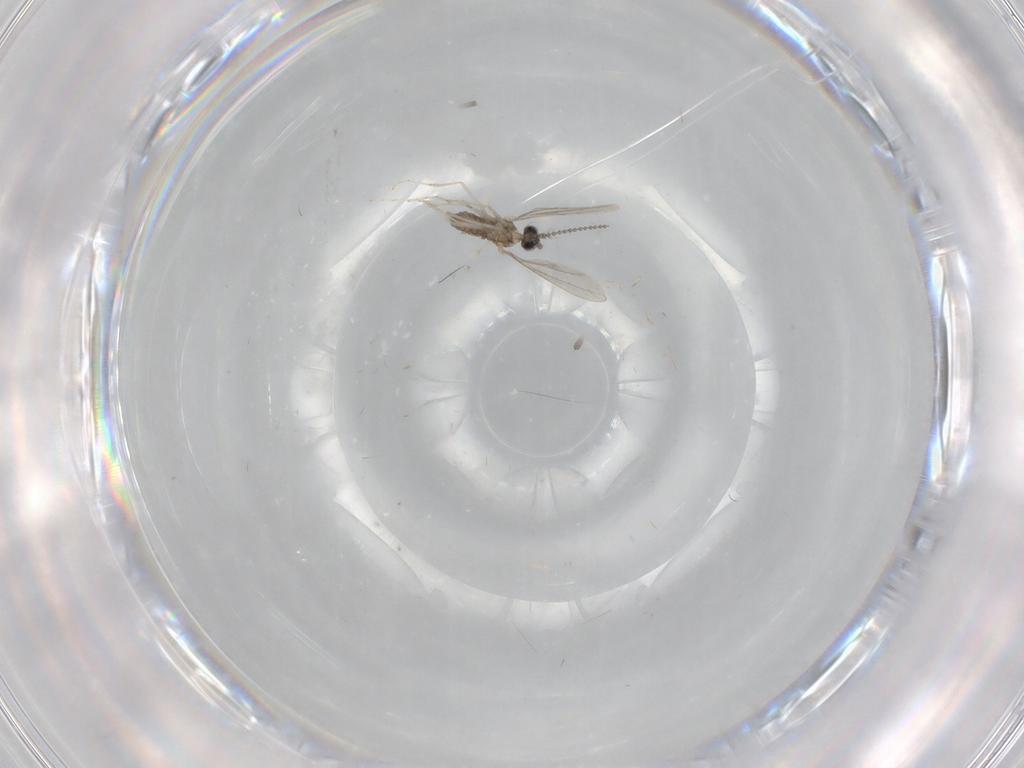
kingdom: Animalia
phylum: Arthropoda
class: Insecta
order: Diptera
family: Cecidomyiidae
